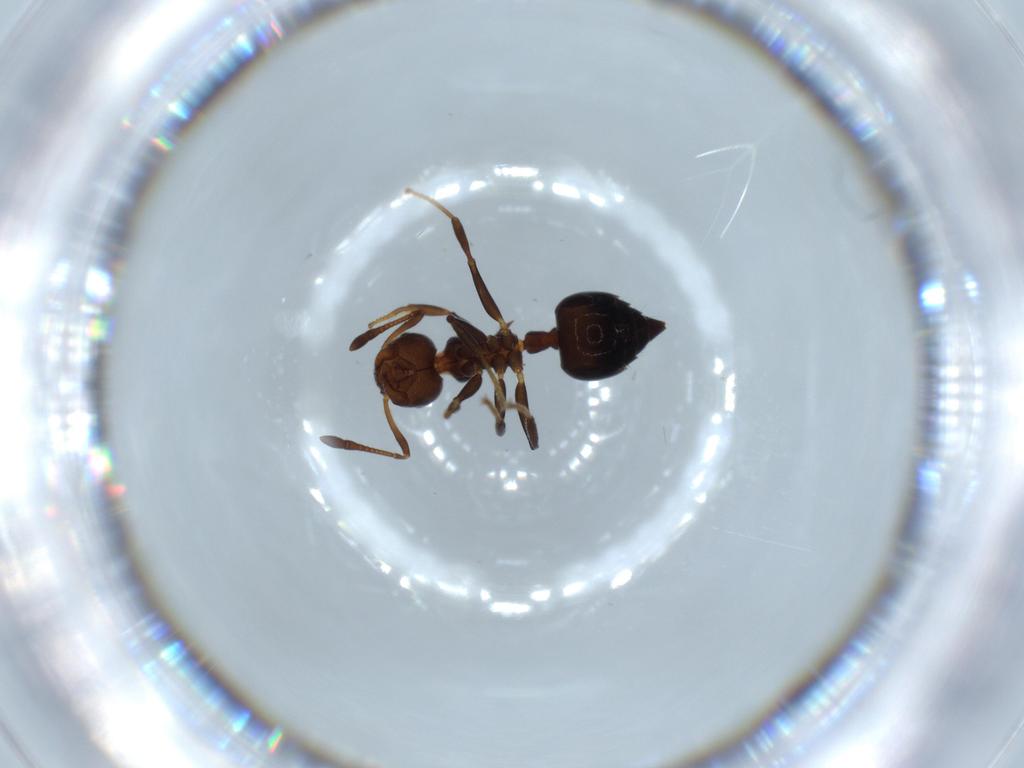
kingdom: Animalia
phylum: Arthropoda
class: Insecta
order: Hymenoptera
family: Formicidae
